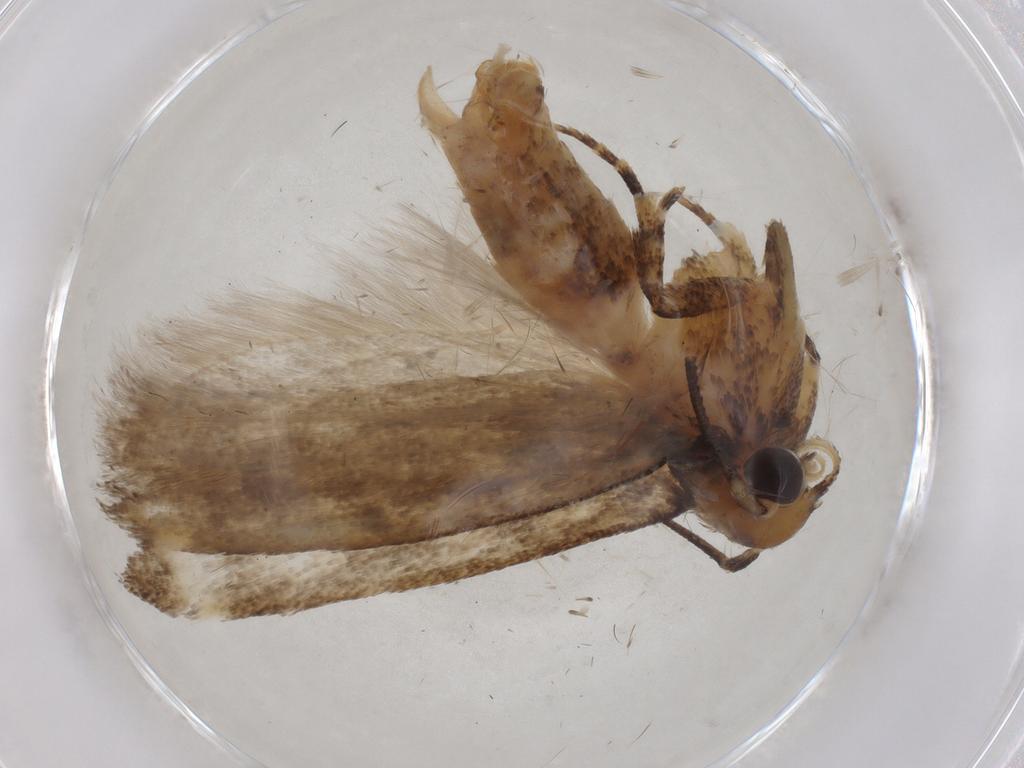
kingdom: Animalia
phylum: Arthropoda
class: Insecta
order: Lepidoptera
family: Gelechiidae
